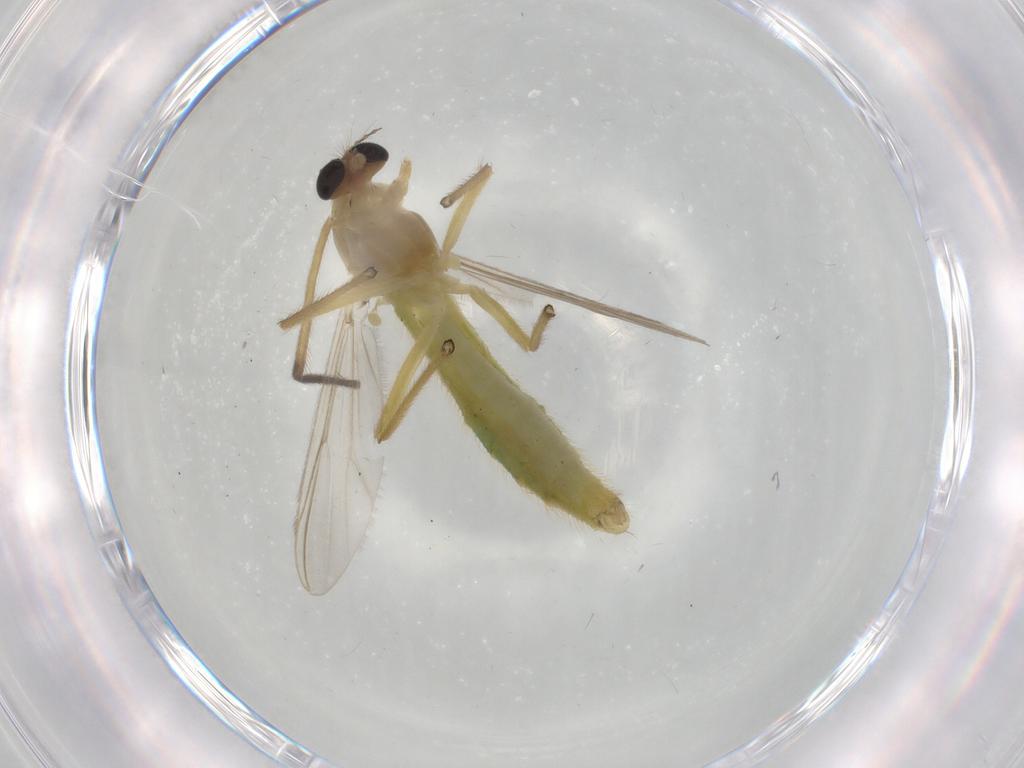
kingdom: Animalia
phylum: Arthropoda
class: Insecta
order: Diptera
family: Chironomidae
